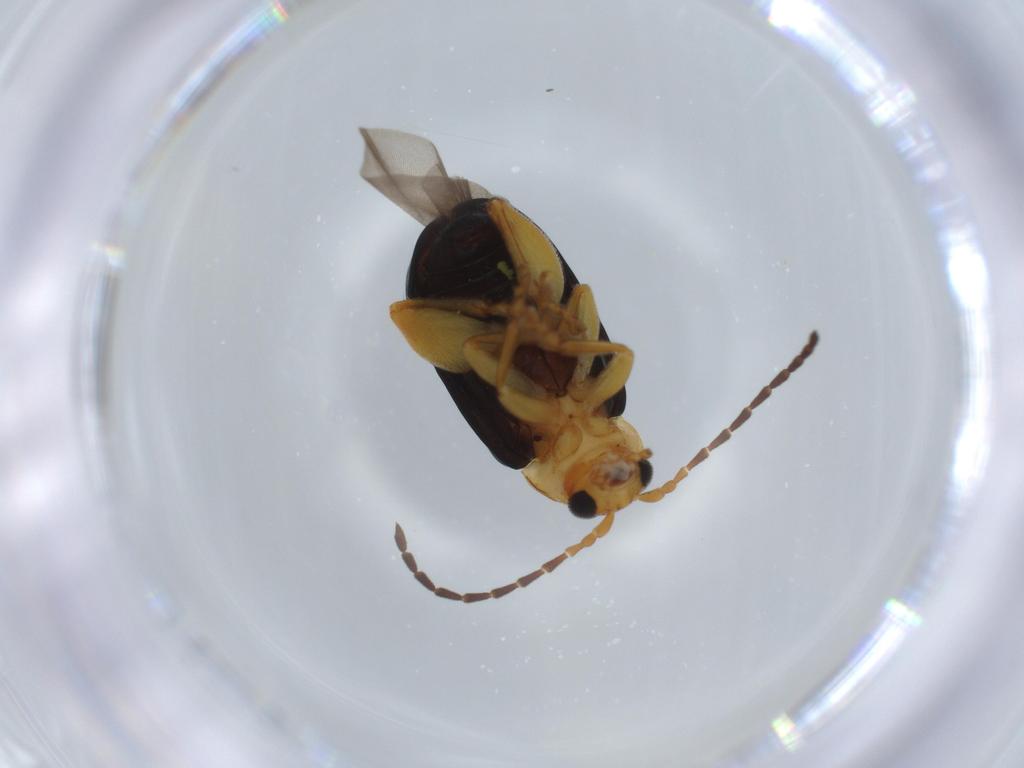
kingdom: Animalia
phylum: Arthropoda
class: Insecta
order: Coleoptera
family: Chrysomelidae
